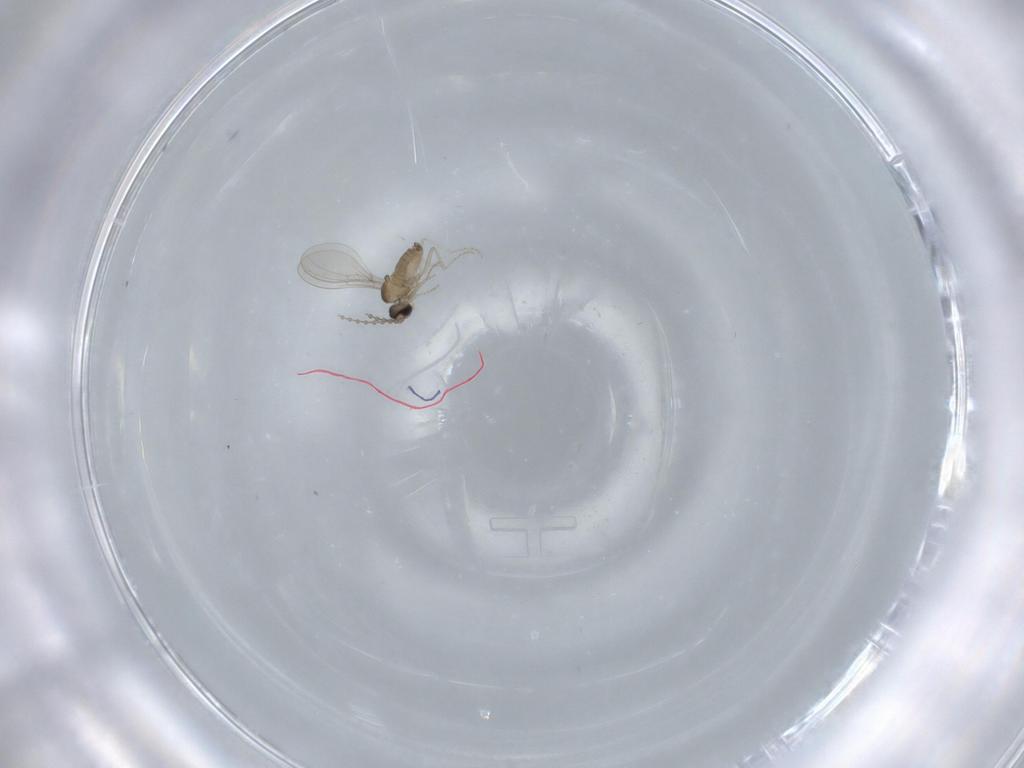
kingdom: Animalia
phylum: Arthropoda
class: Insecta
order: Diptera
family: Cecidomyiidae
